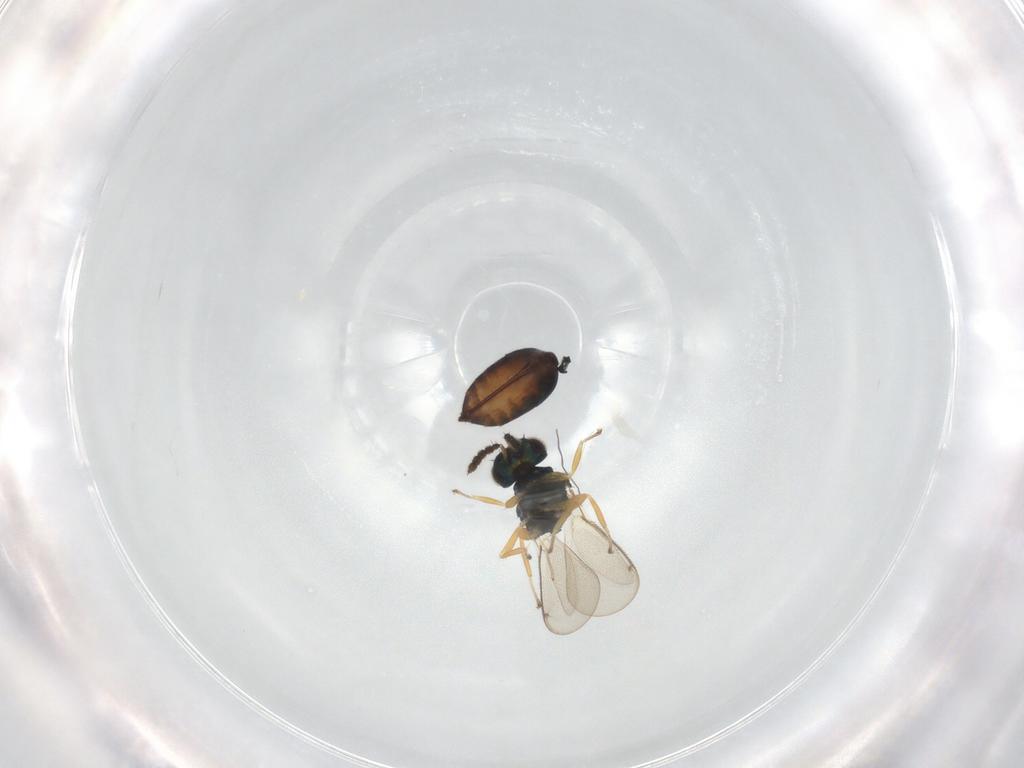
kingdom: Animalia
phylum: Arthropoda
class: Insecta
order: Hymenoptera
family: Eulophidae
